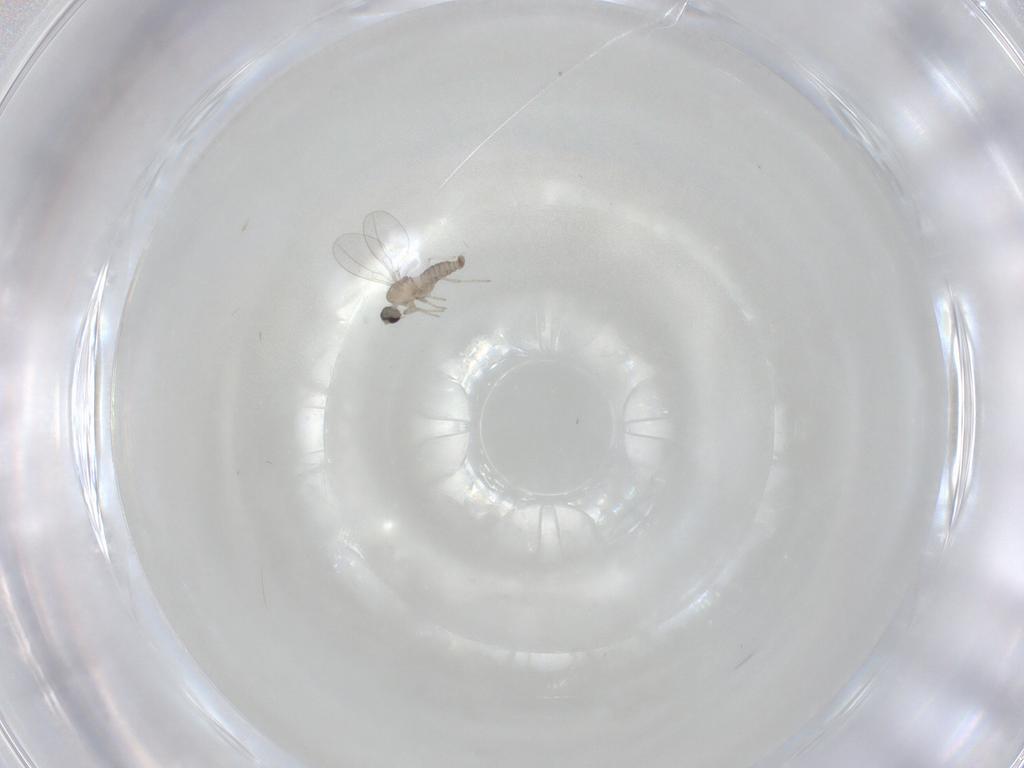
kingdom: Animalia
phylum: Arthropoda
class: Insecta
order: Diptera
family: Cecidomyiidae
